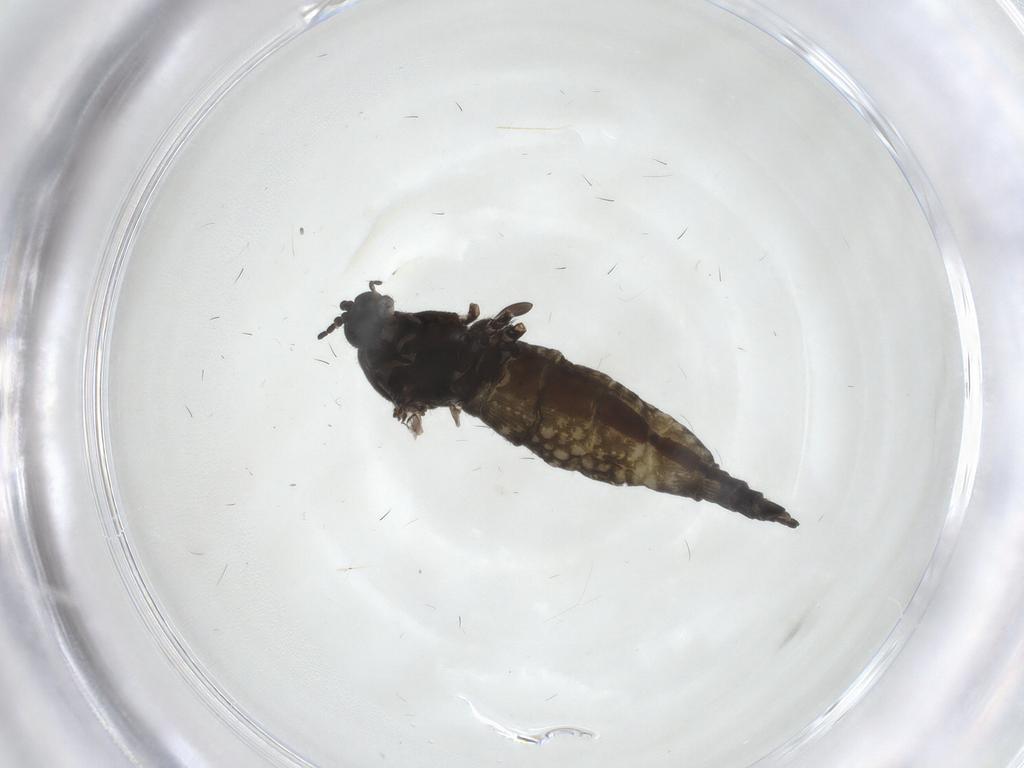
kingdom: Animalia
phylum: Arthropoda
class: Insecta
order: Diptera
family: Sciaridae
